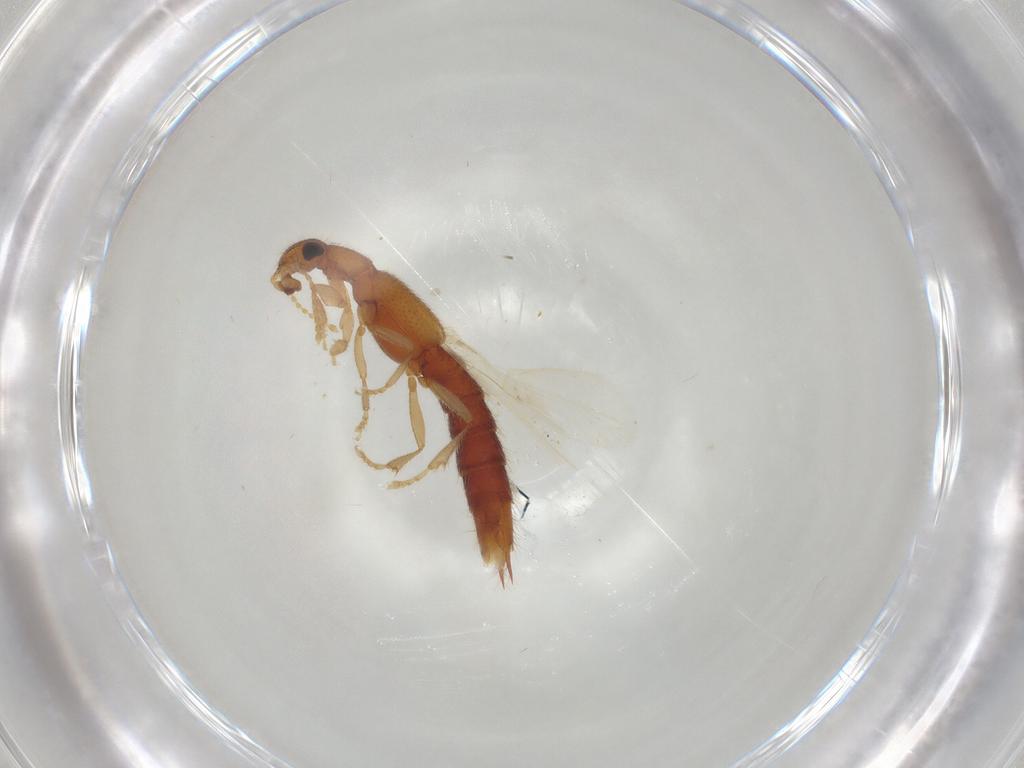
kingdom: Animalia
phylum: Arthropoda
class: Insecta
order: Coleoptera
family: Staphylinidae
